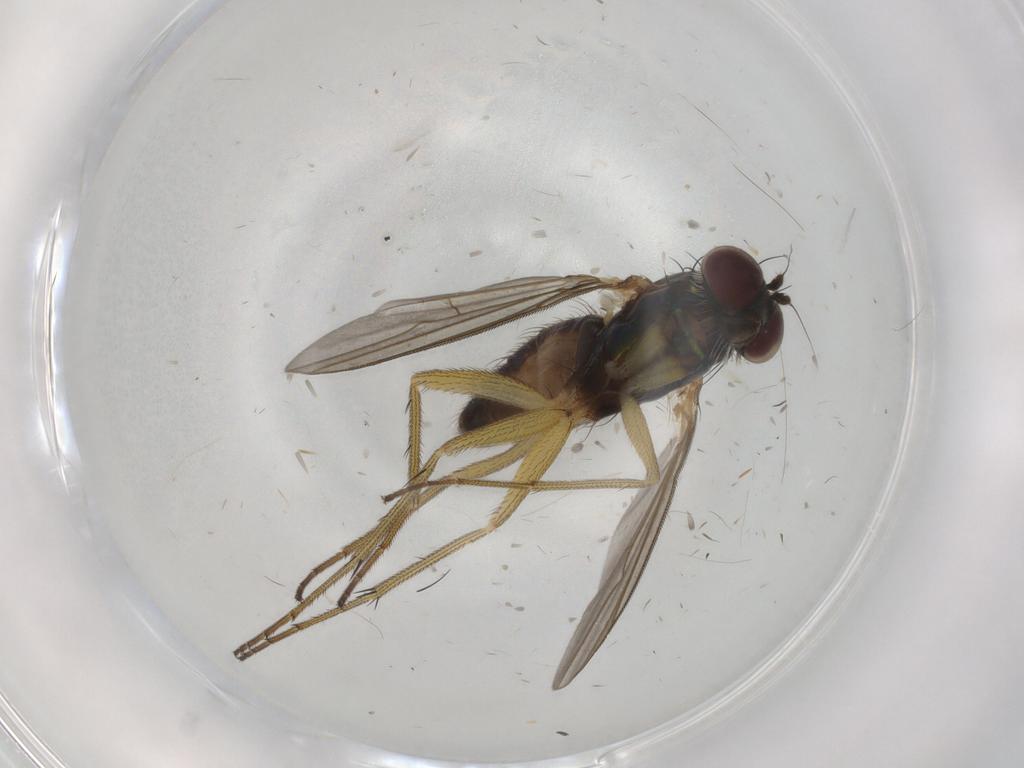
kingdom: Animalia
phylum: Arthropoda
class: Insecta
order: Diptera
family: Dolichopodidae
